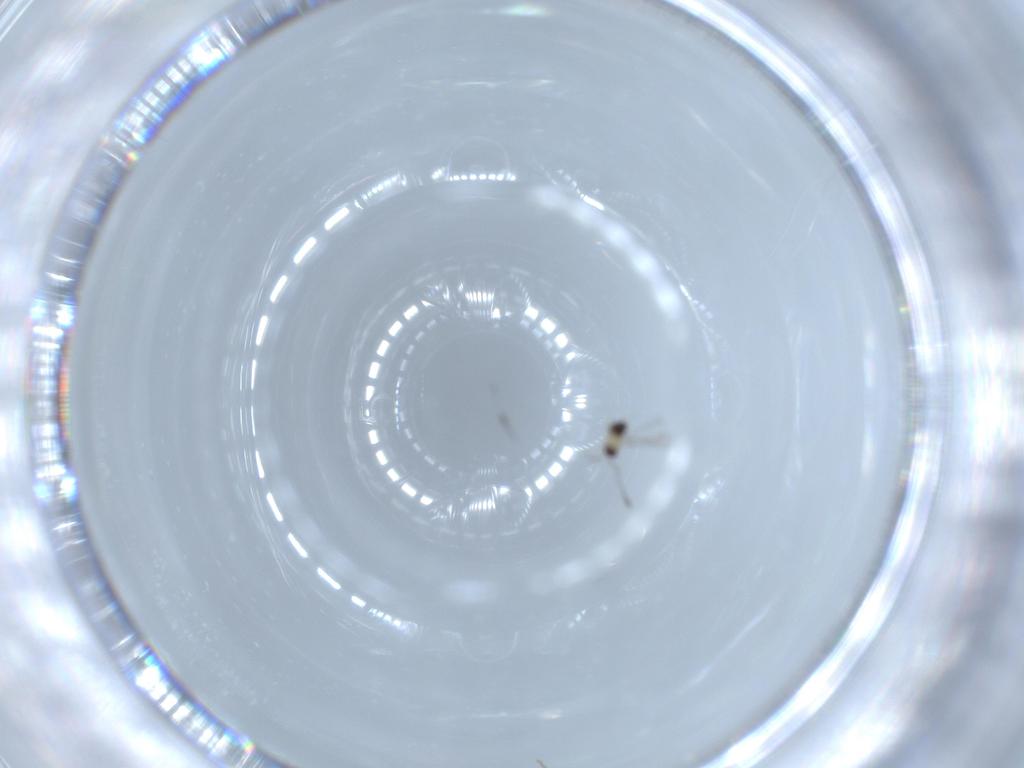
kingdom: Animalia
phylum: Arthropoda
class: Insecta
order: Hymenoptera
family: Mymaridae
